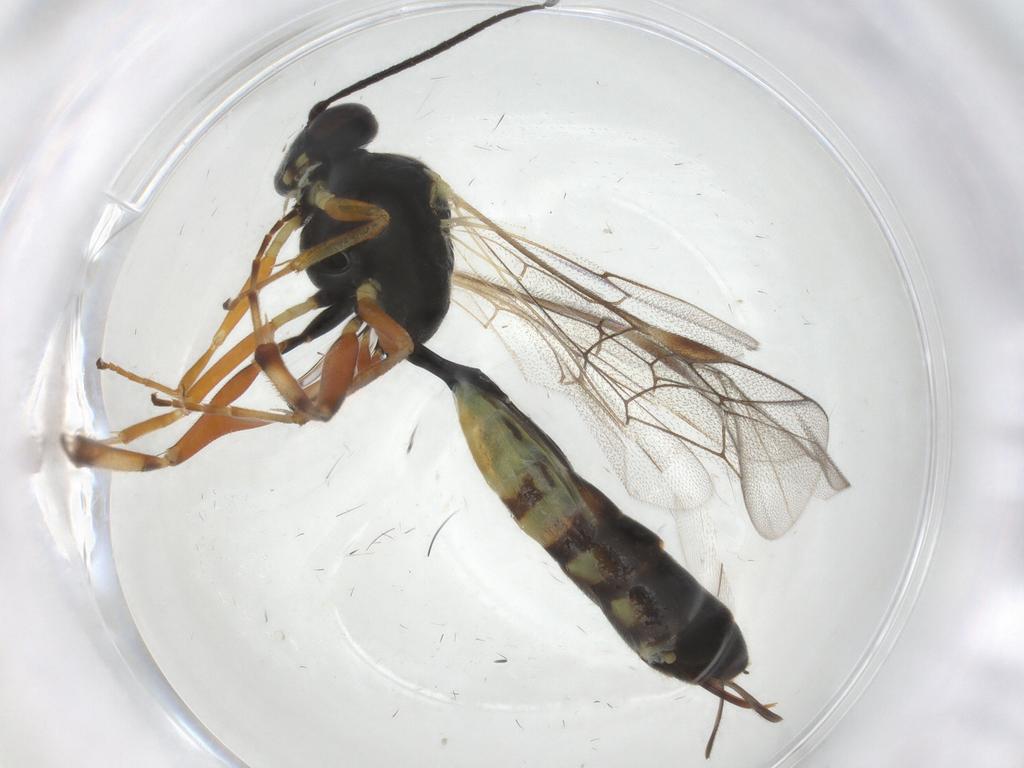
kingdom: Animalia
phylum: Arthropoda
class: Insecta
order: Hymenoptera
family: Ichneumonidae
